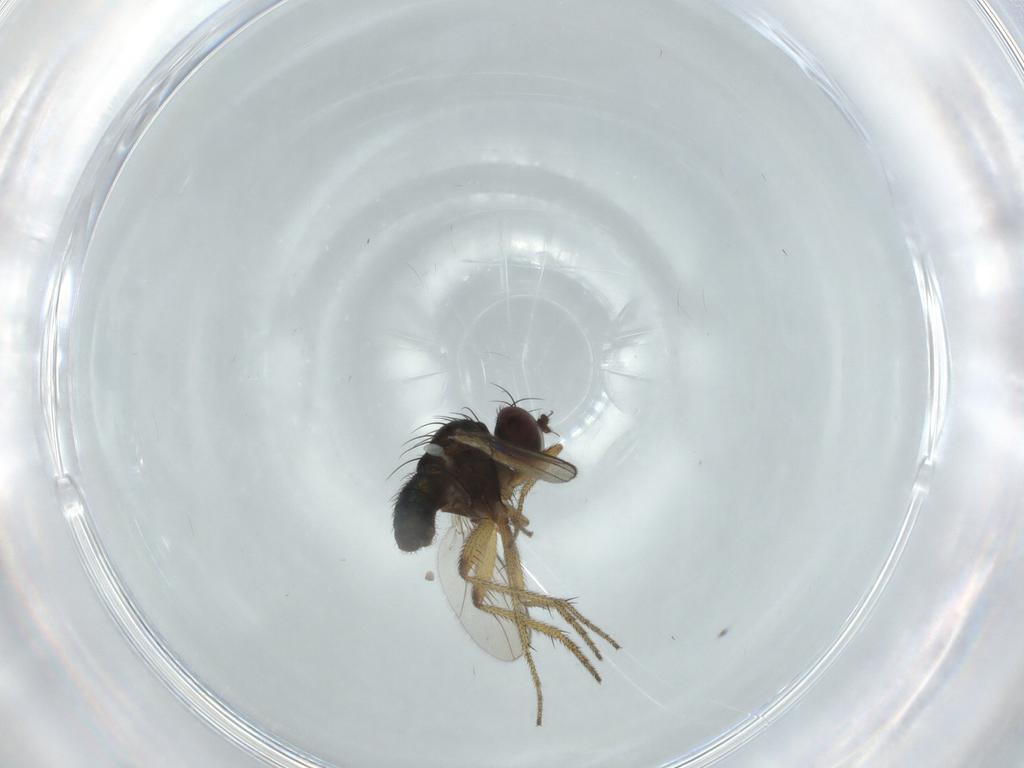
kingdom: Animalia
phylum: Arthropoda
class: Insecta
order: Diptera
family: Dolichopodidae
